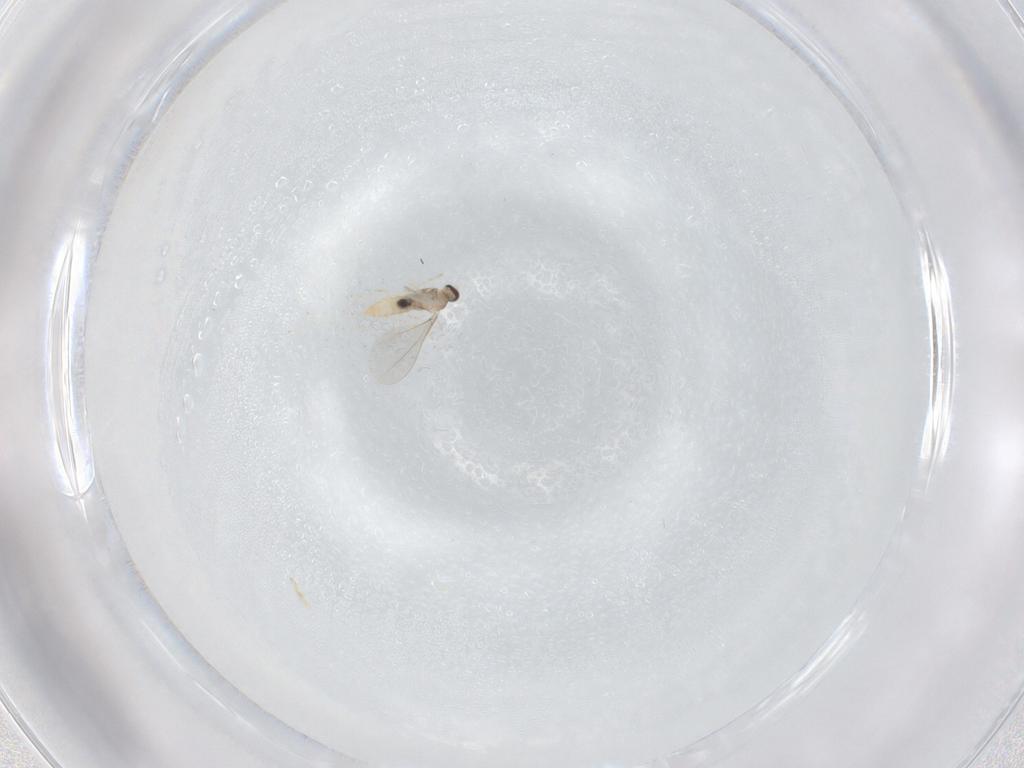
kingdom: Animalia
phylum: Arthropoda
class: Insecta
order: Diptera
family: Cecidomyiidae
